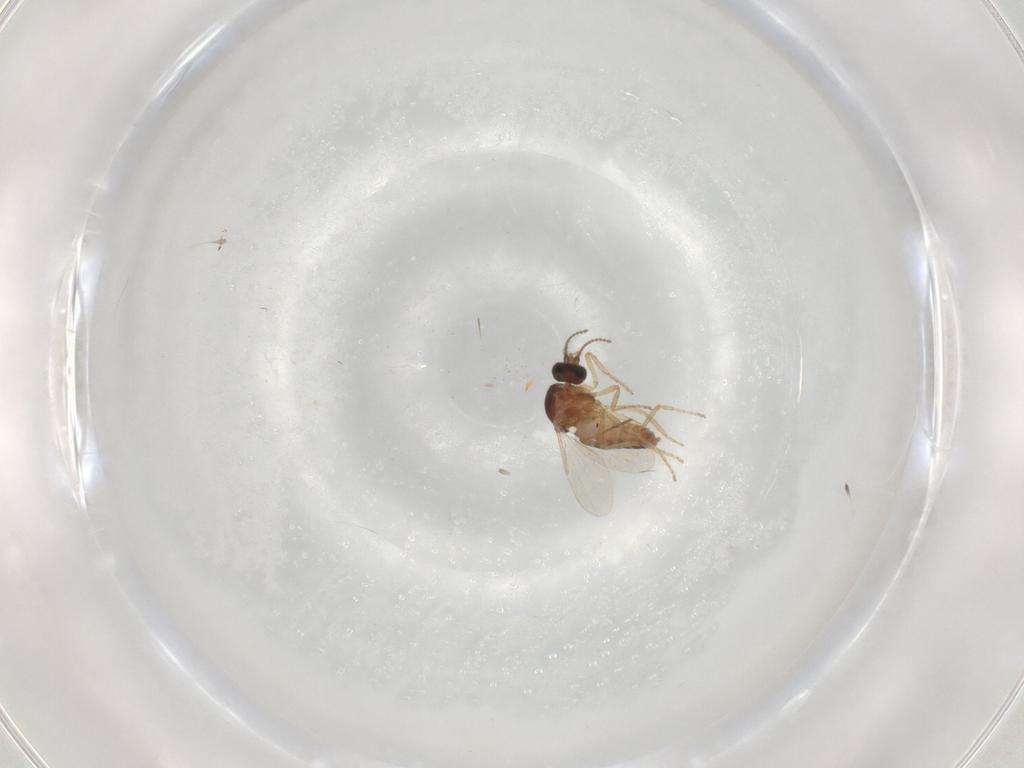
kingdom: Animalia
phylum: Arthropoda
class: Insecta
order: Diptera
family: Ceratopogonidae
